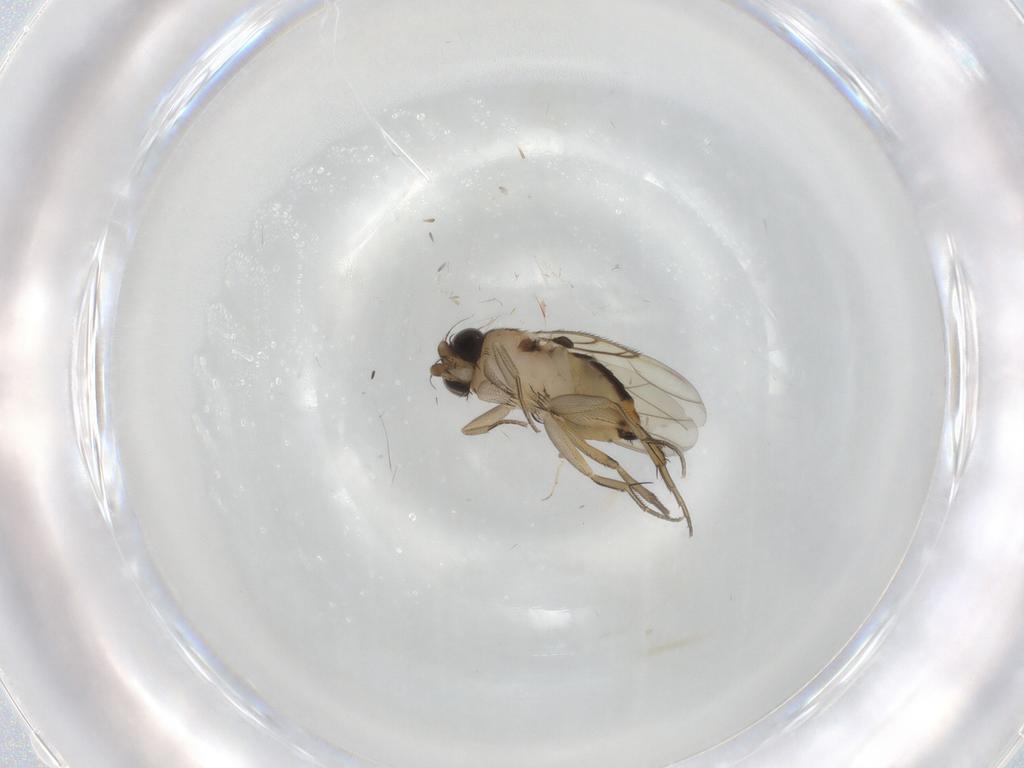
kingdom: Animalia
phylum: Arthropoda
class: Insecta
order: Diptera
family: Phoridae
